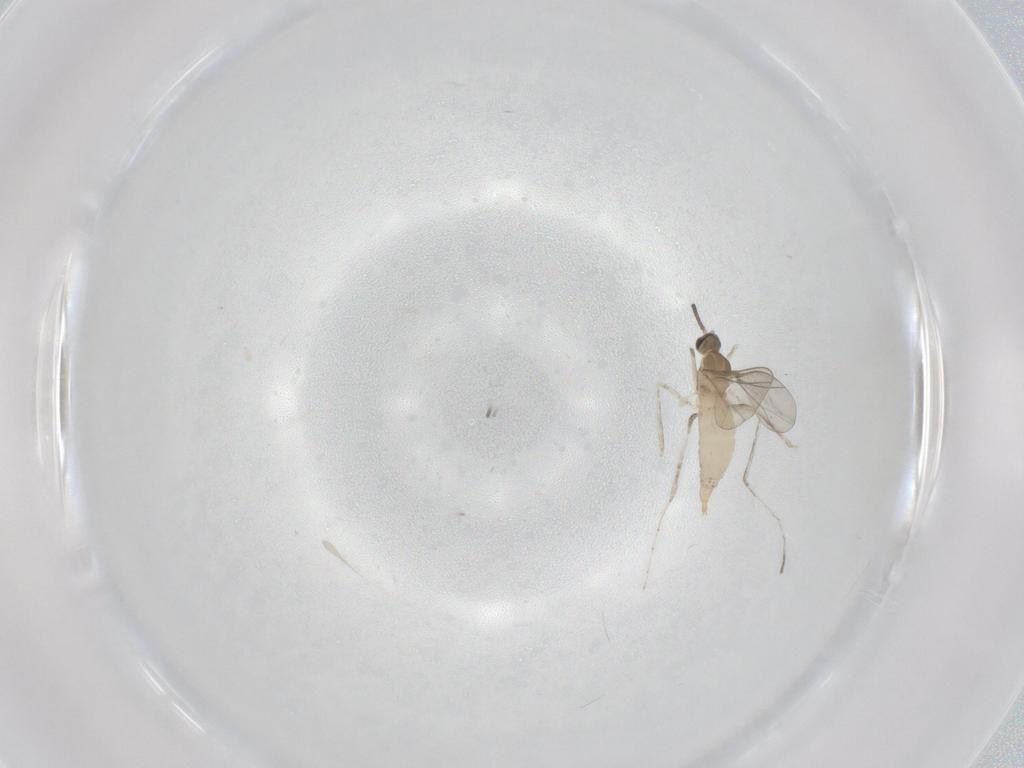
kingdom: Animalia
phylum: Arthropoda
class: Insecta
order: Diptera
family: Cecidomyiidae
